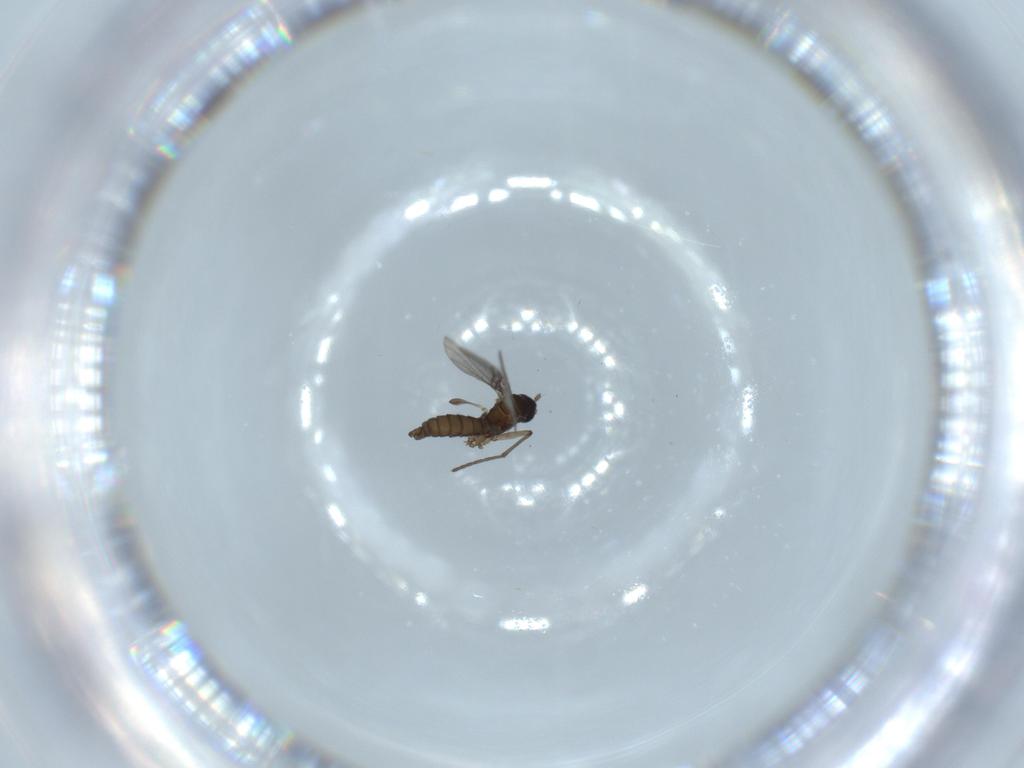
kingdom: Animalia
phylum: Arthropoda
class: Insecta
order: Diptera
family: Sciaridae
